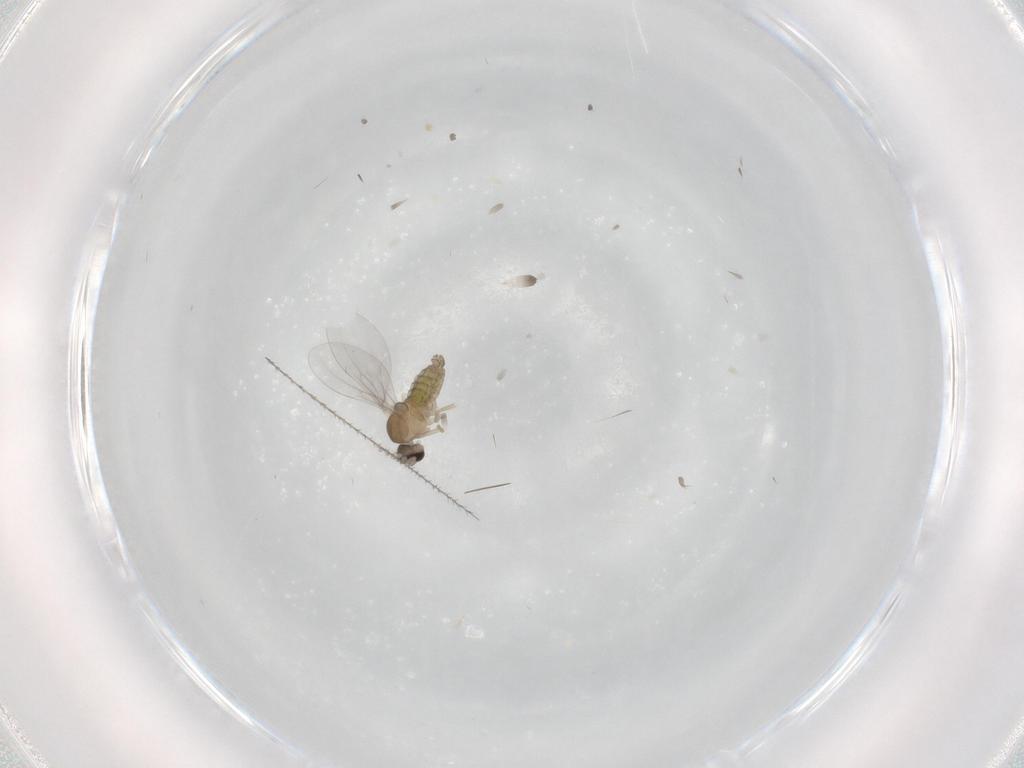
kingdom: Animalia
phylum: Arthropoda
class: Insecta
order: Diptera
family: Cecidomyiidae
